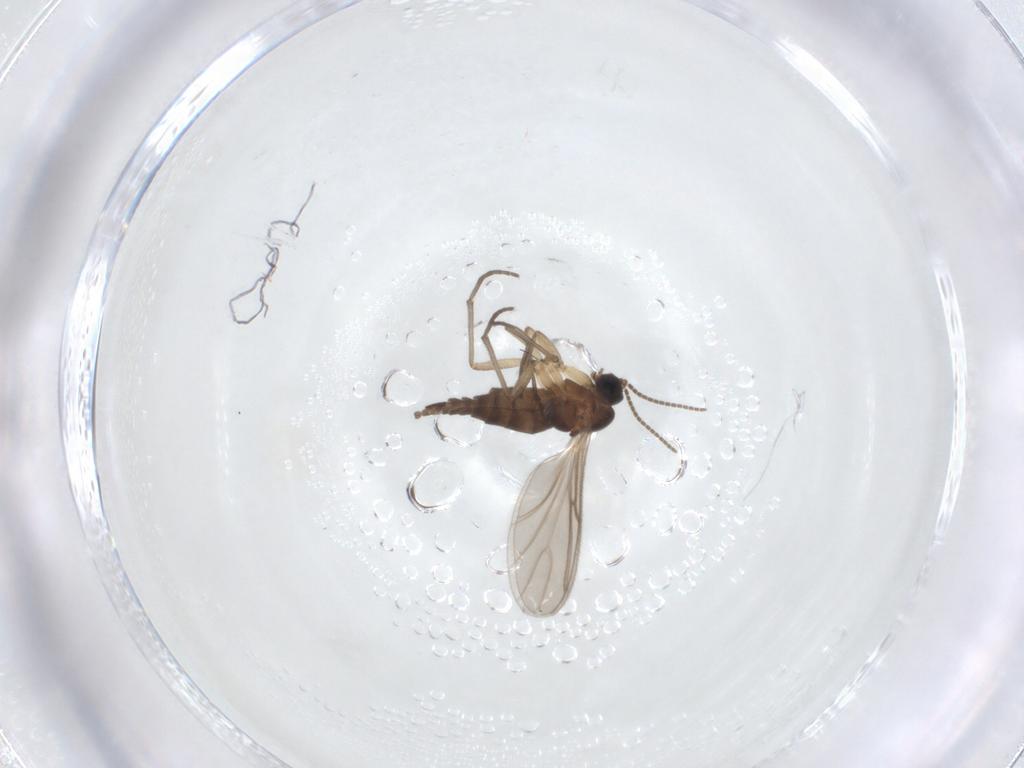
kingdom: Animalia
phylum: Arthropoda
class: Insecta
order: Diptera
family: Sciaridae
